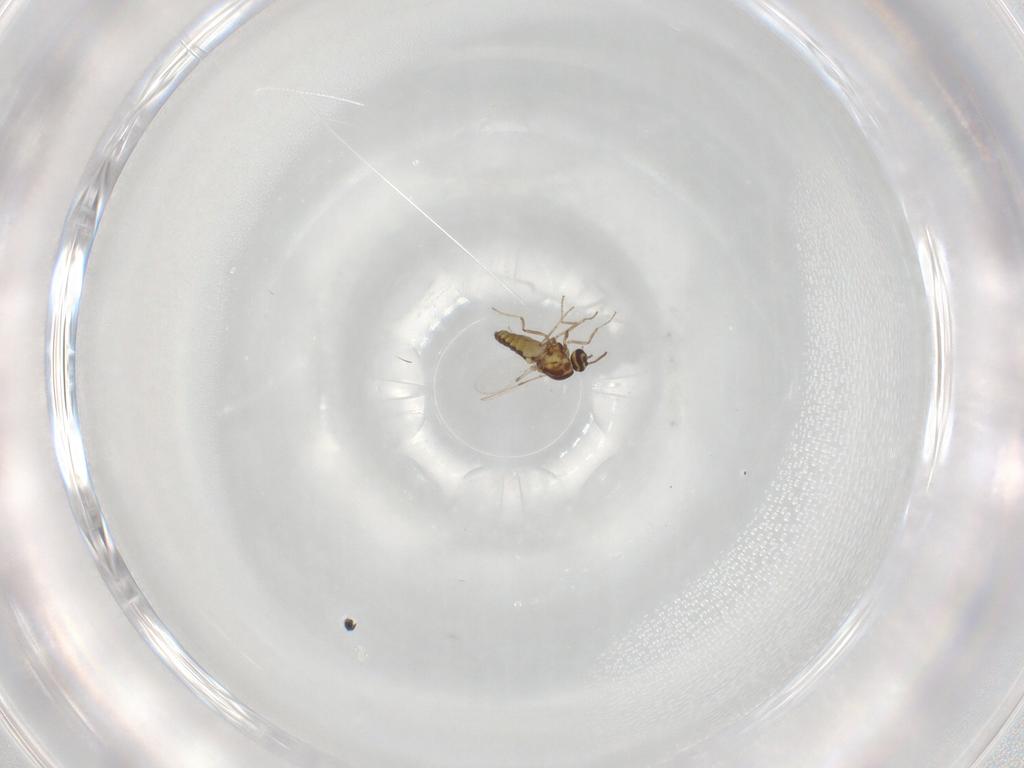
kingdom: Animalia
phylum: Arthropoda
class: Insecta
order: Diptera
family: Ceratopogonidae
